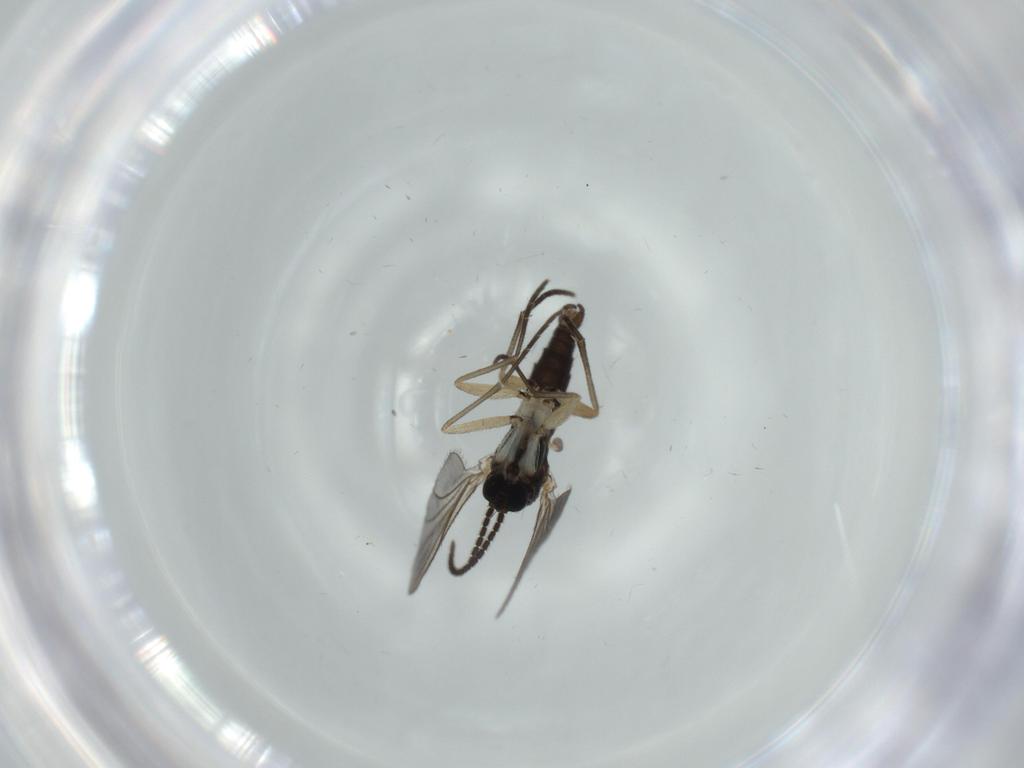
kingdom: Animalia
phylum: Arthropoda
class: Insecta
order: Diptera
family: Sciaridae
